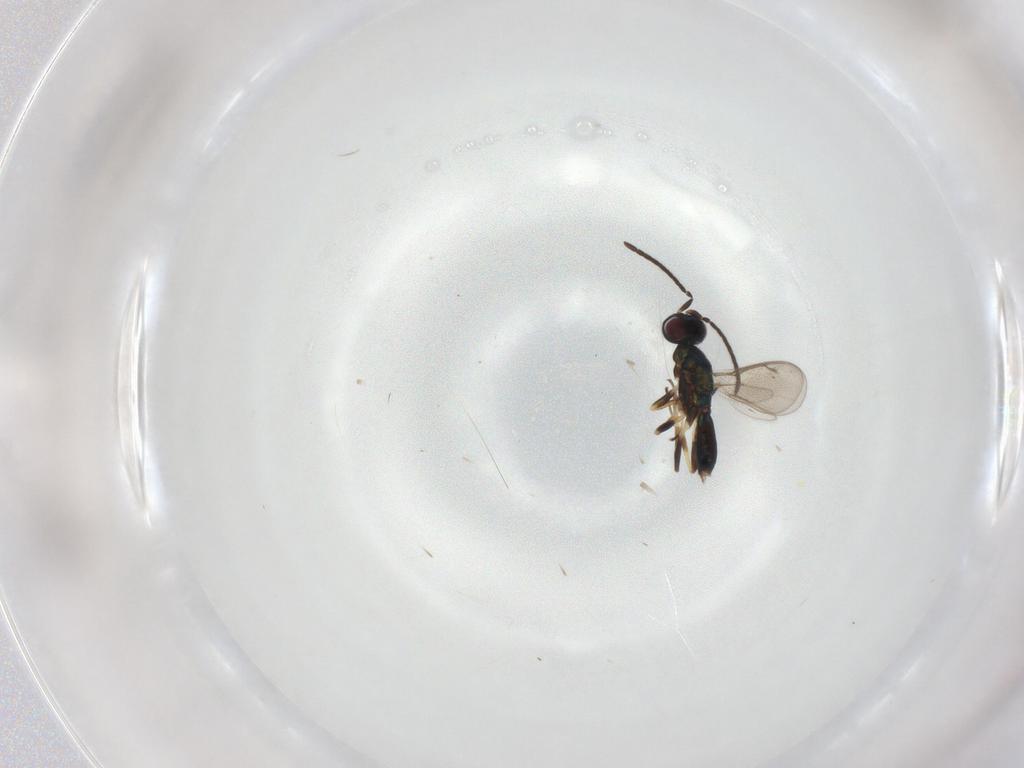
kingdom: Animalia
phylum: Arthropoda
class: Insecta
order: Hymenoptera
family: Pteromalidae
